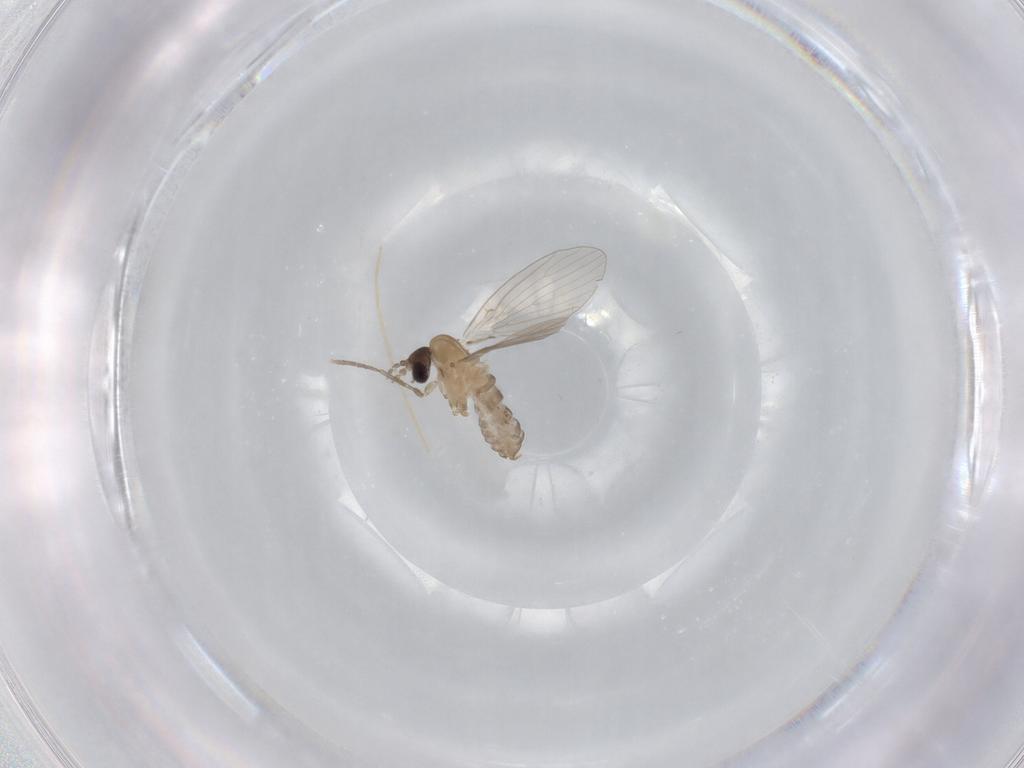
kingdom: Animalia
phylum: Arthropoda
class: Insecta
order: Diptera
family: Chironomidae
